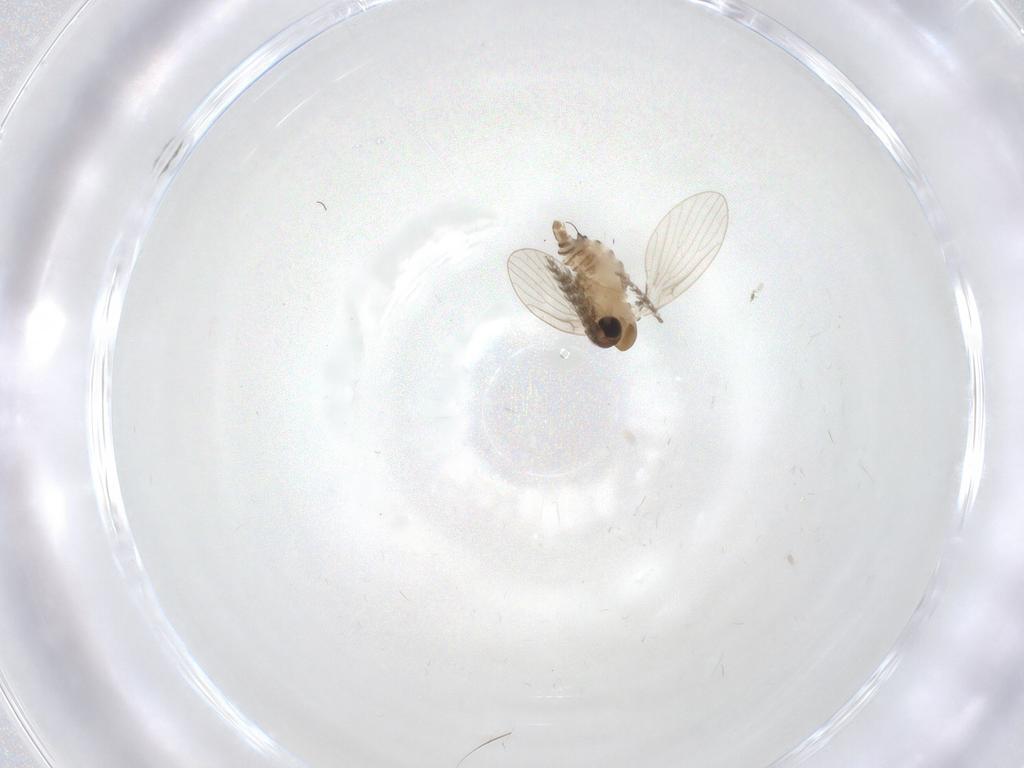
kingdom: Animalia
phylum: Arthropoda
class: Insecta
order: Diptera
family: Psychodidae
